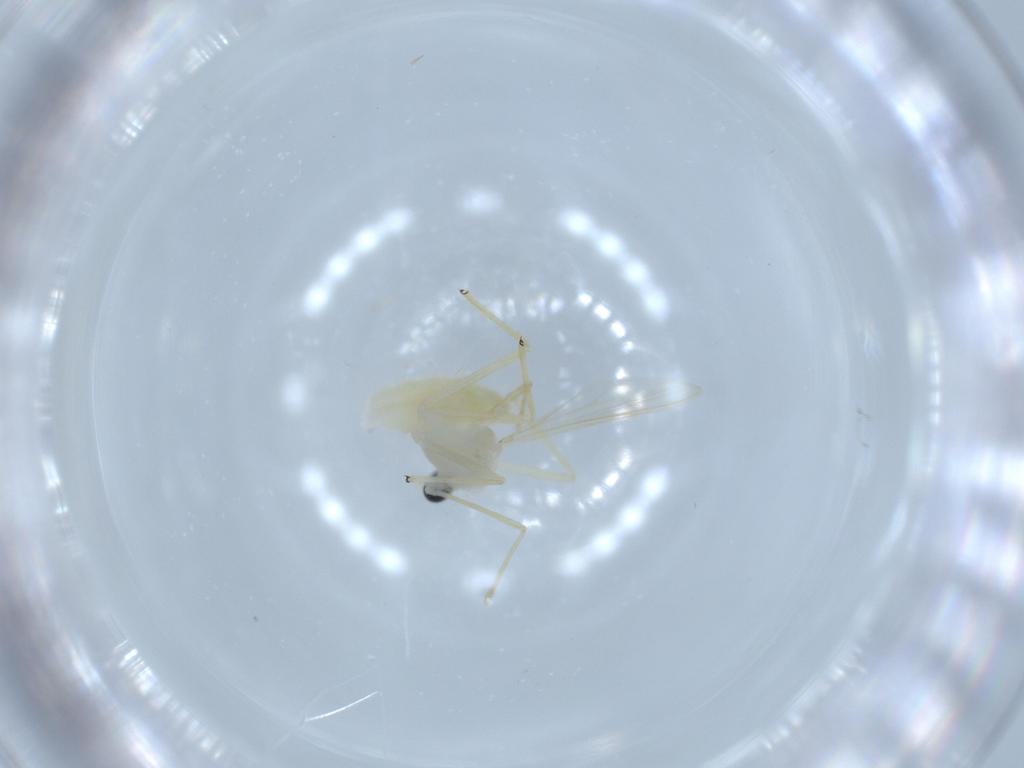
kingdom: Animalia
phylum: Arthropoda
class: Insecta
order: Diptera
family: Chironomidae
